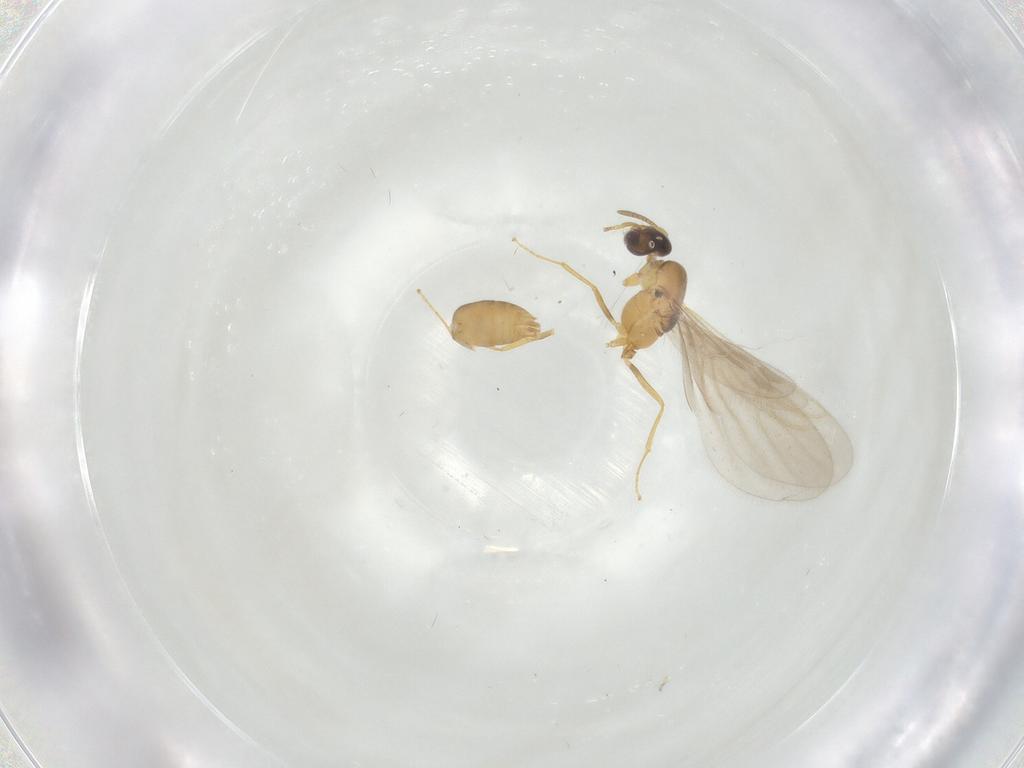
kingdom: Animalia
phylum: Arthropoda
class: Insecta
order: Hymenoptera
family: Formicidae
